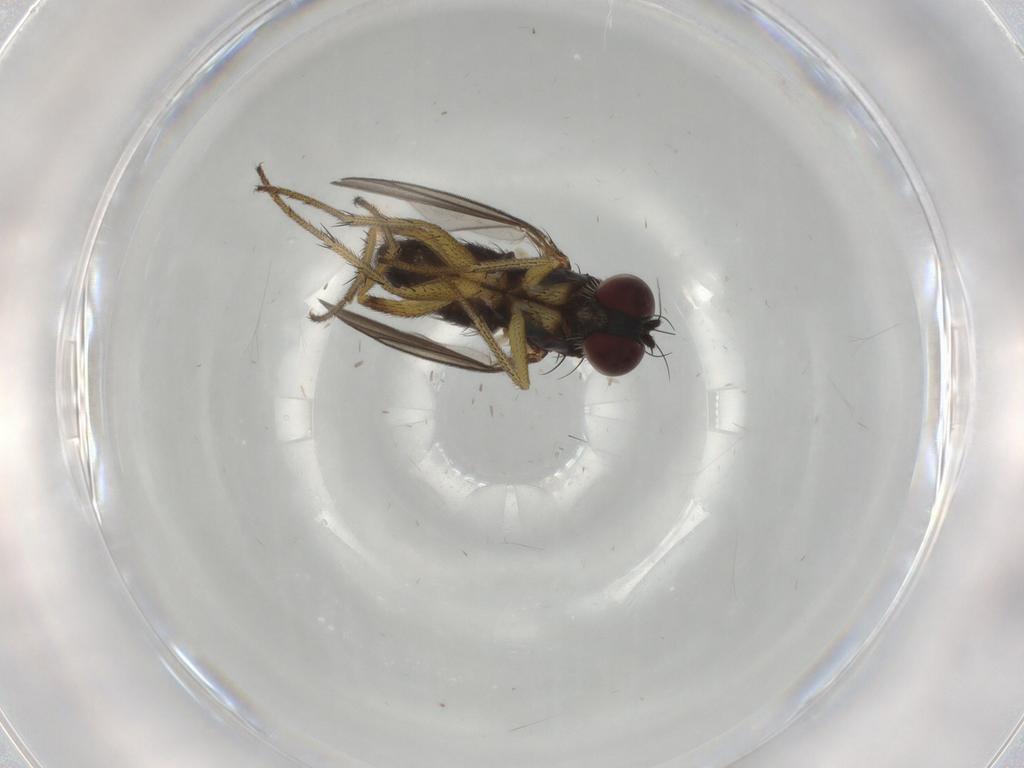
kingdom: Animalia
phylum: Arthropoda
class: Insecta
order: Diptera
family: Dolichopodidae
